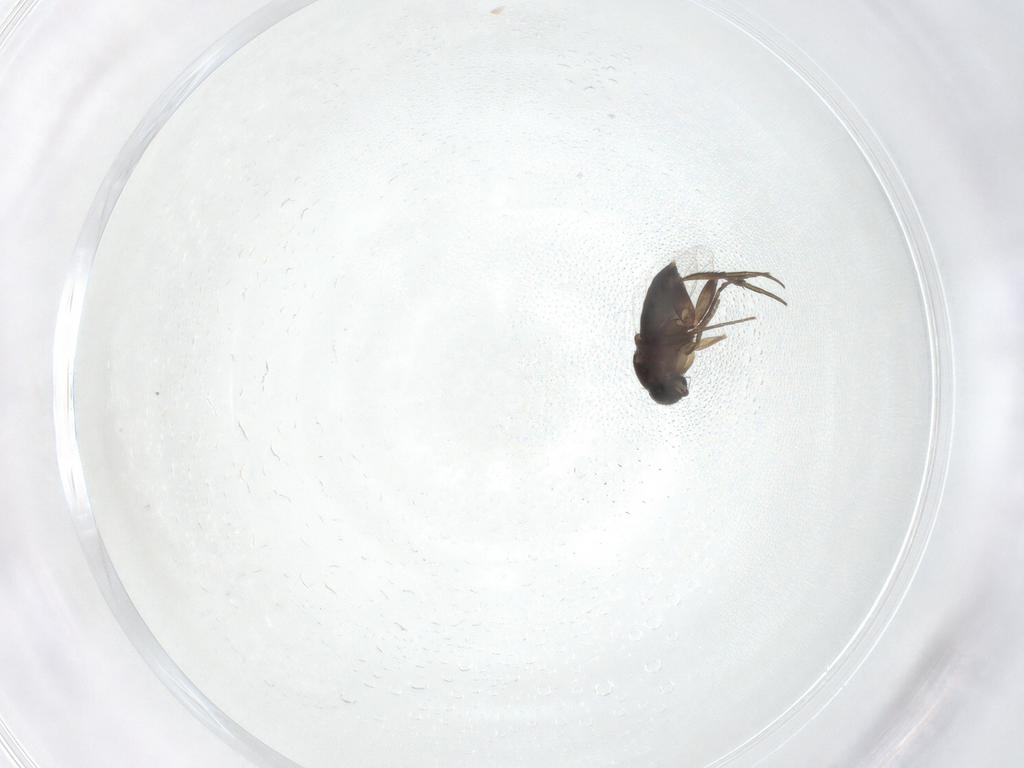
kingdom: Animalia
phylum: Arthropoda
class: Insecta
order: Diptera
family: Phoridae
